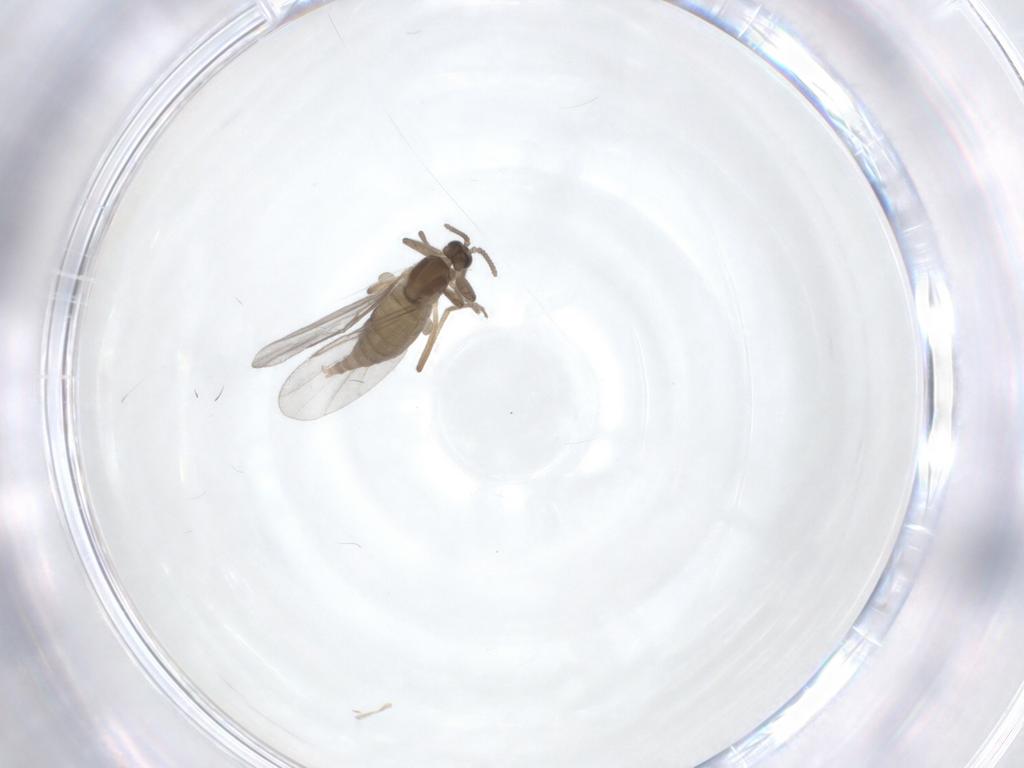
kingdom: Animalia
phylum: Arthropoda
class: Insecta
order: Diptera
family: Cecidomyiidae
